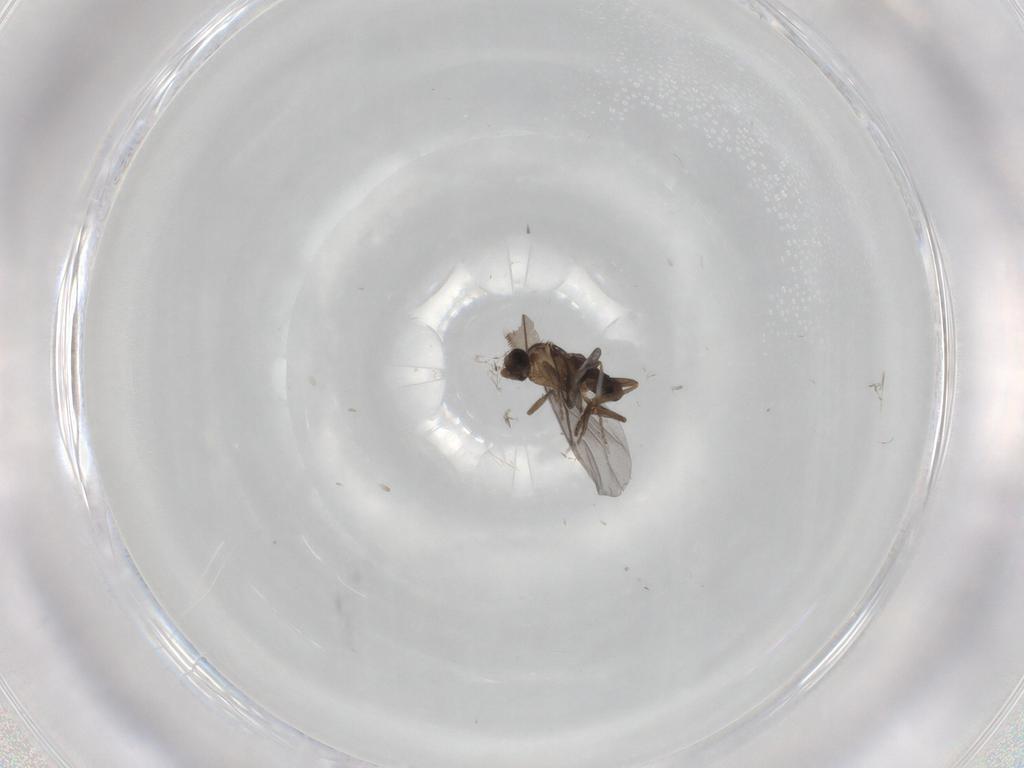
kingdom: Animalia
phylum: Arthropoda
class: Insecta
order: Diptera
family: Phoridae
